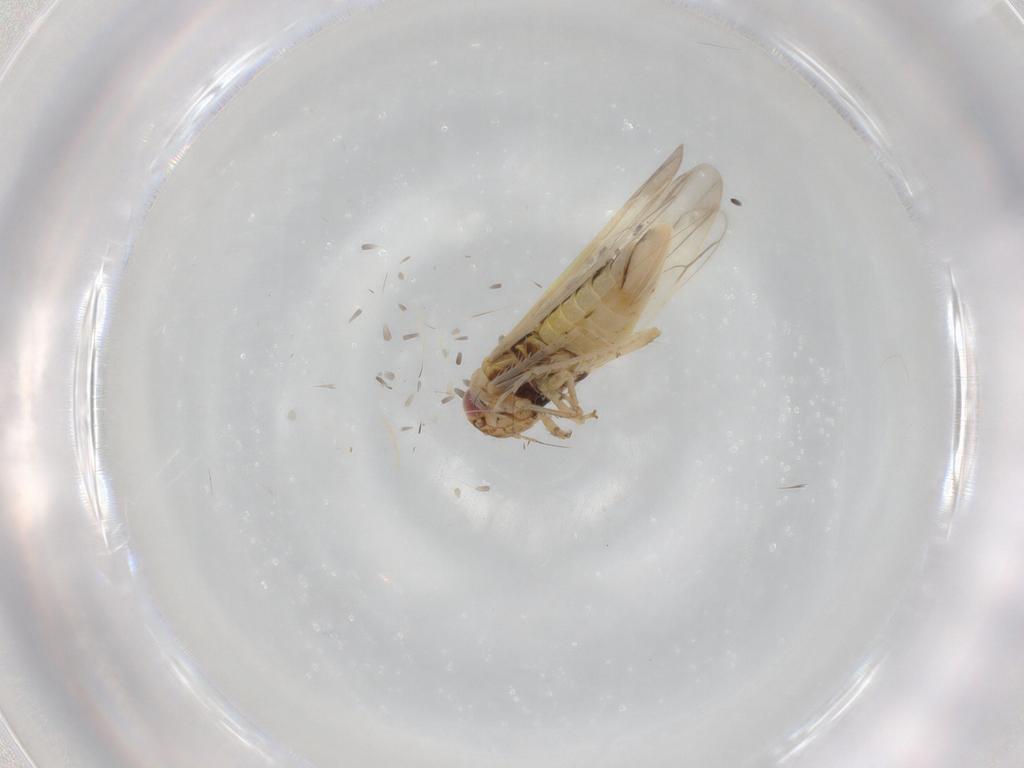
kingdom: Animalia
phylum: Arthropoda
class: Insecta
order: Hemiptera
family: Cicadellidae
